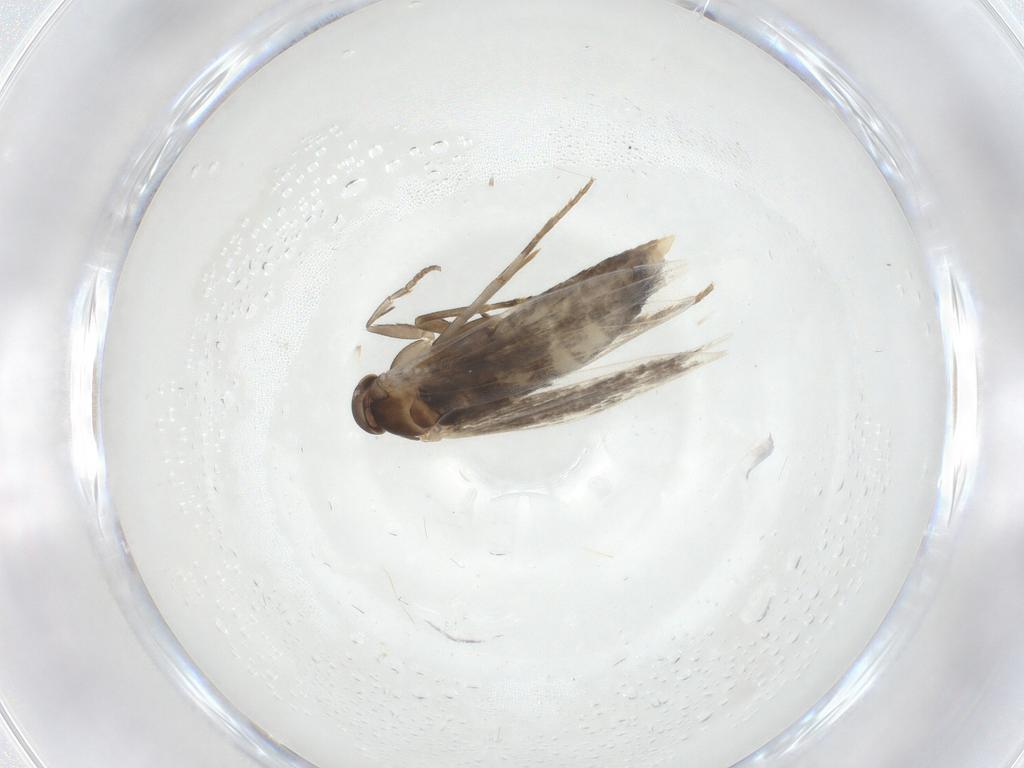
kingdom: Animalia
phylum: Arthropoda
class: Insecta
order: Lepidoptera
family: Elachistidae
